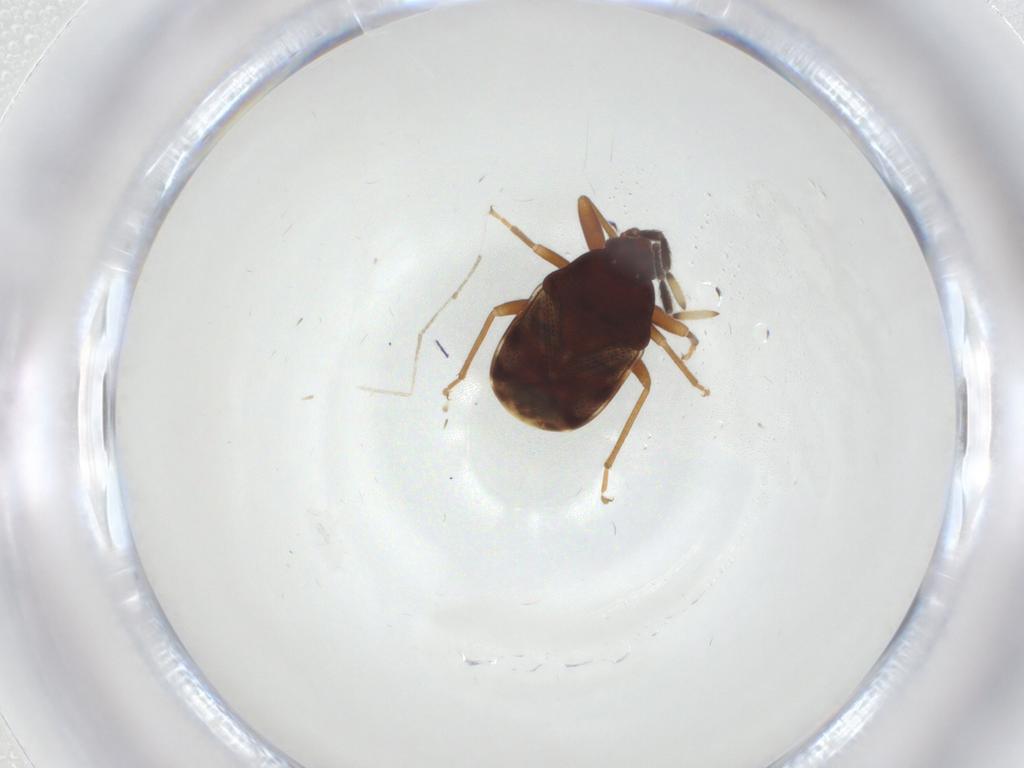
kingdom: Animalia
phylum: Arthropoda
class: Insecta
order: Hemiptera
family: Rhyparochromidae
